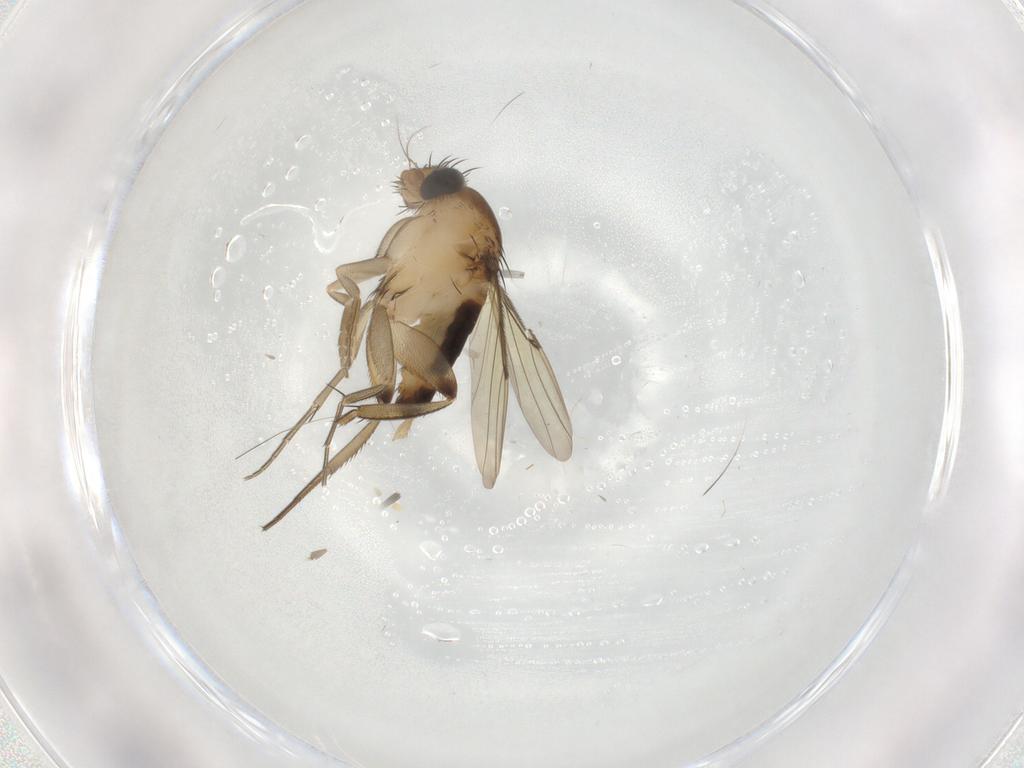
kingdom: Animalia
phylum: Arthropoda
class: Insecta
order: Diptera
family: Phoridae
